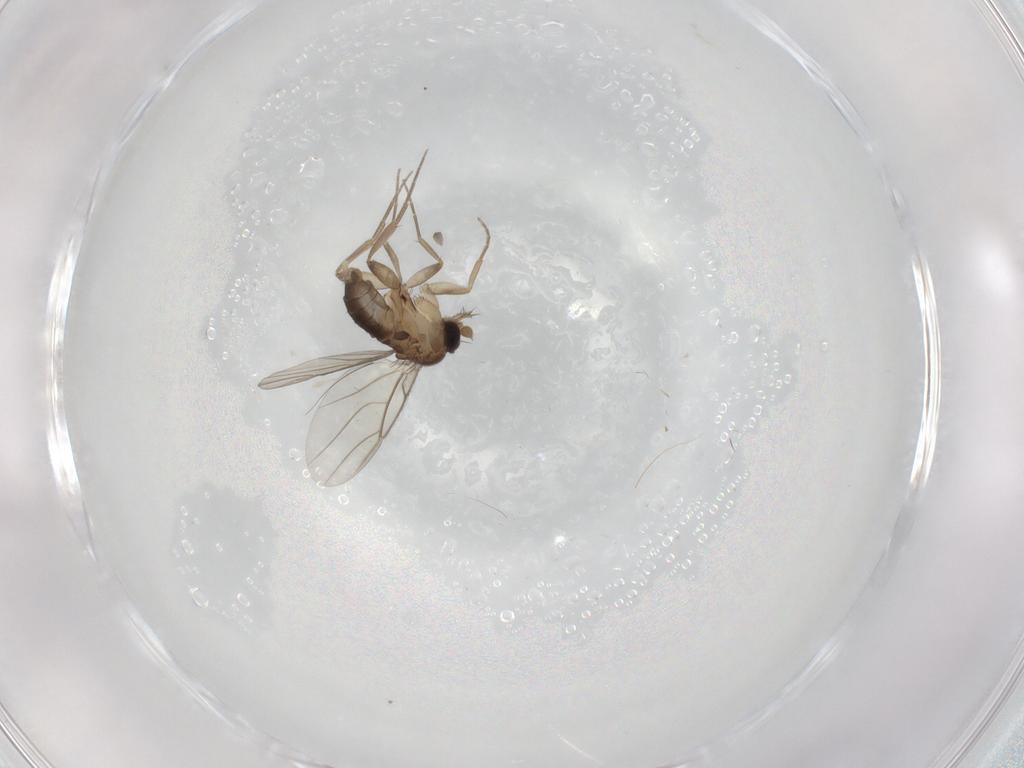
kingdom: Animalia
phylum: Arthropoda
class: Insecta
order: Diptera
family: Phoridae
